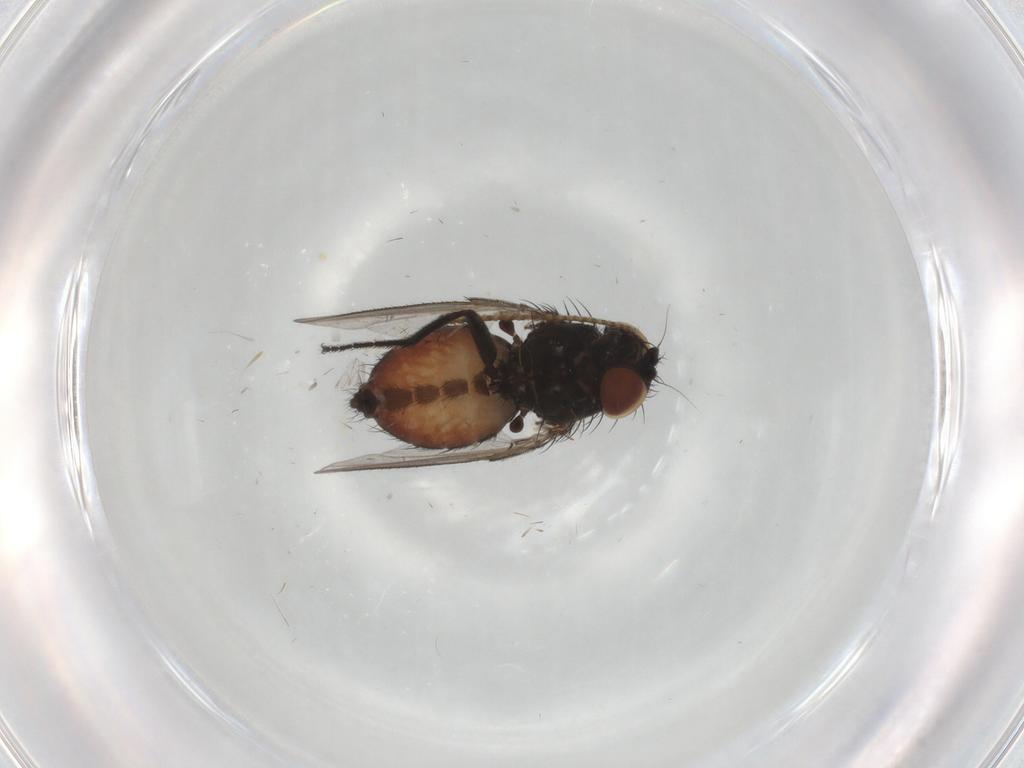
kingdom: Animalia
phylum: Arthropoda
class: Insecta
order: Diptera
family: Milichiidae
